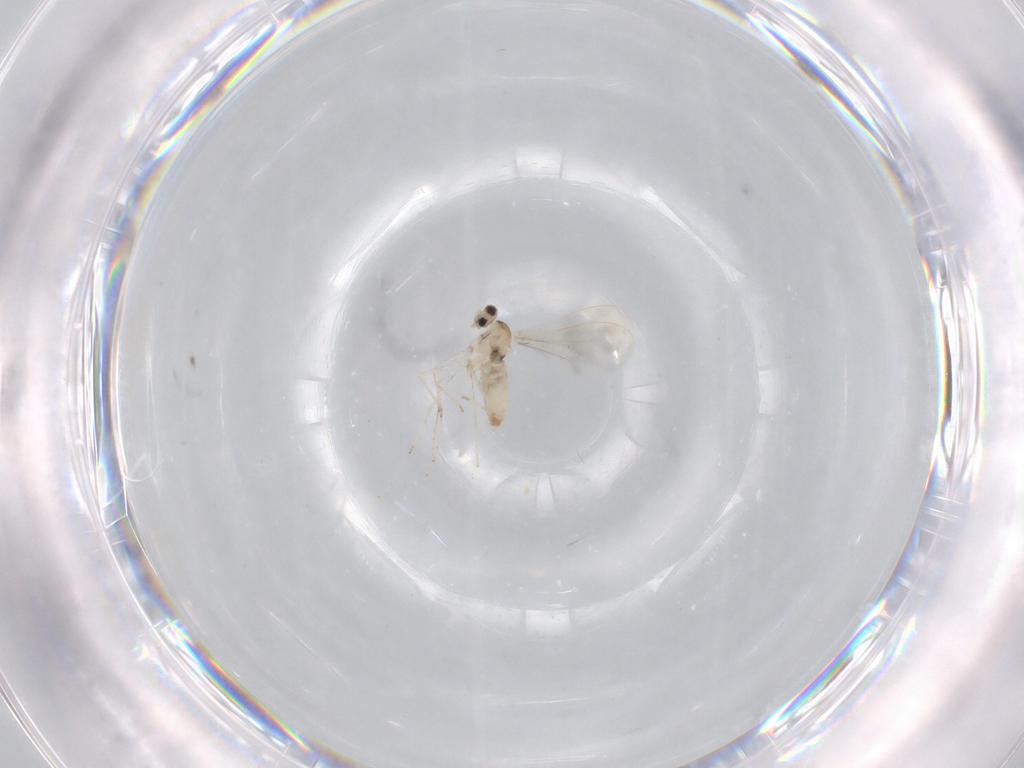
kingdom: Animalia
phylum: Arthropoda
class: Insecta
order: Diptera
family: Cecidomyiidae
